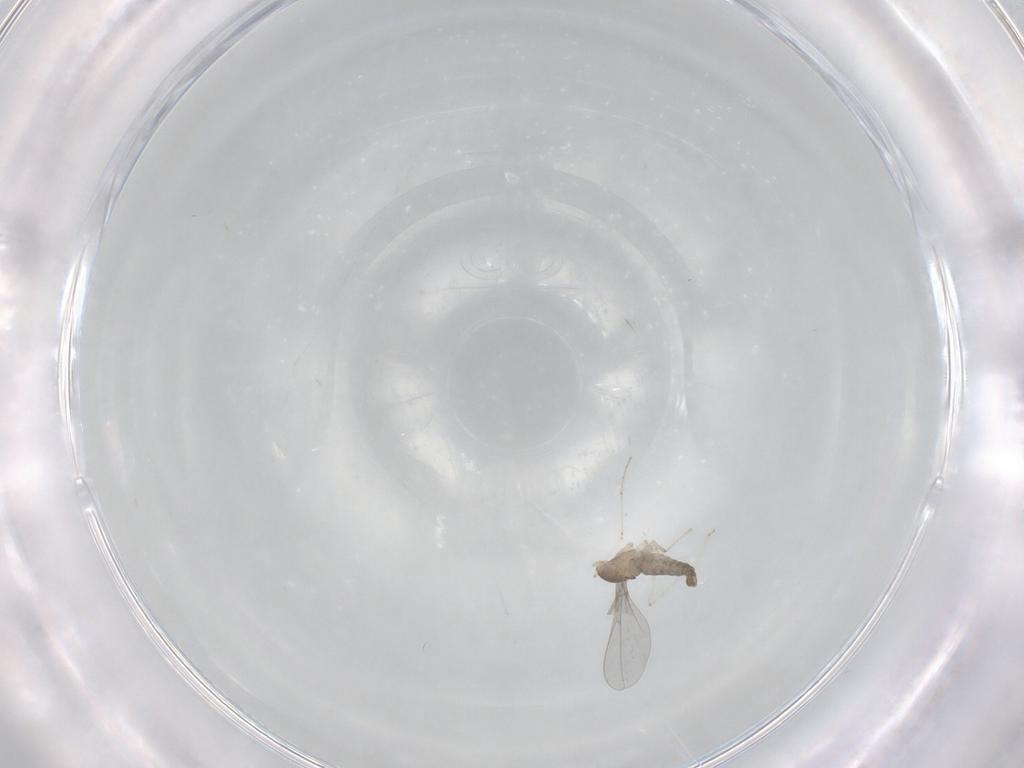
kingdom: Animalia
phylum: Arthropoda
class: Insecta
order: Diptera
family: Cecidomyiidae
